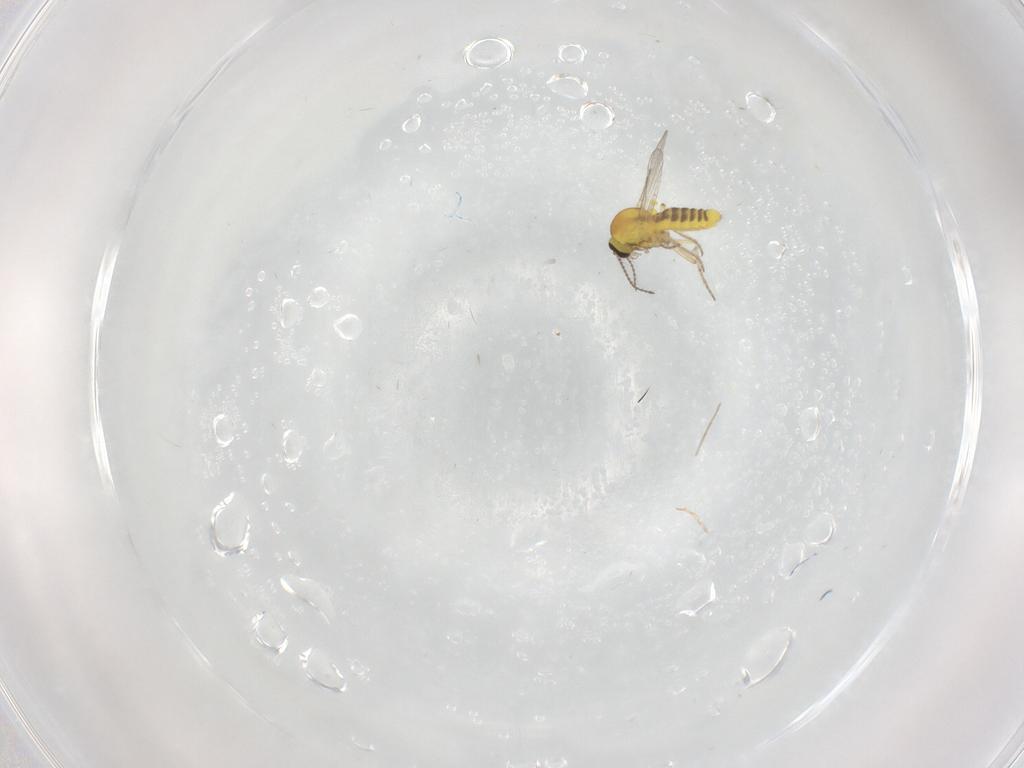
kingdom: Animalia
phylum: Arthropoda
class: Insecta
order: Diptera
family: Ceratopogonidae
